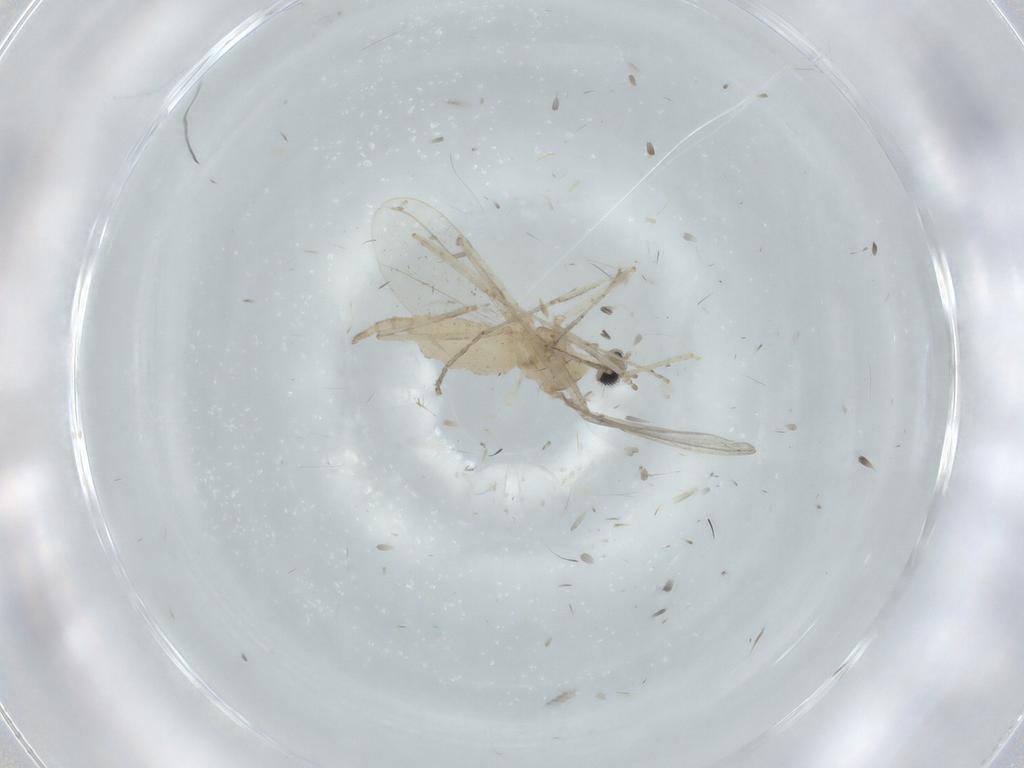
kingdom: Animalia
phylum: Arthropoda
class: Insecta
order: Diptera
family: Cecidomyiidae
